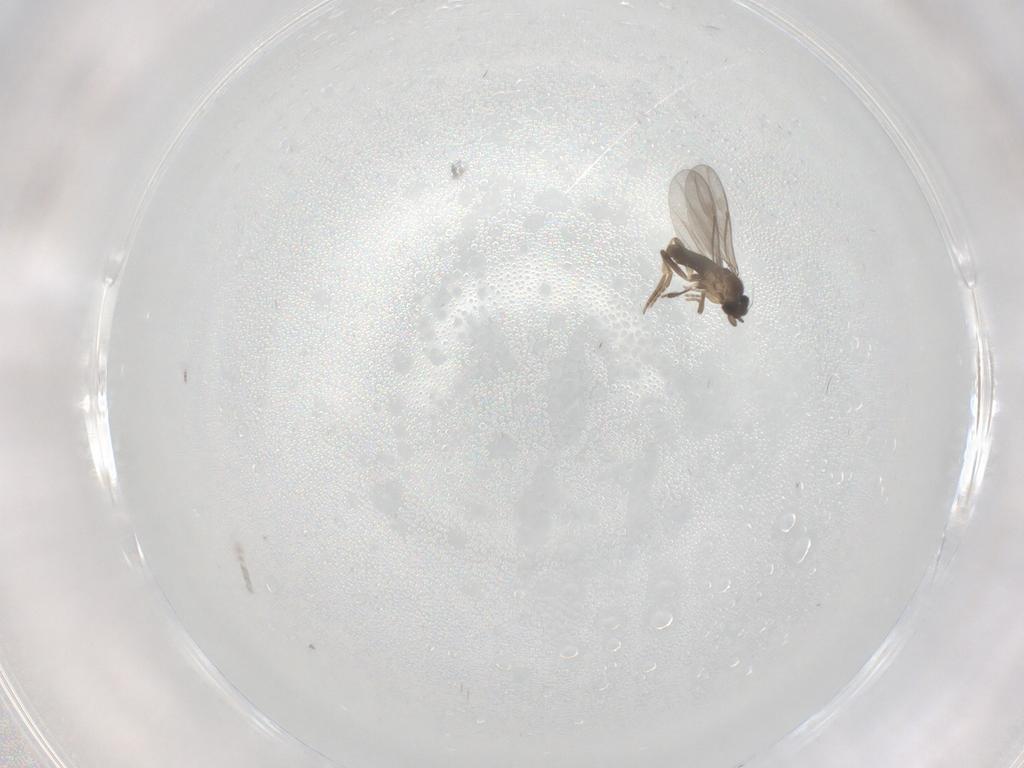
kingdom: Animalia
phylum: Arthropoda
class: Insecta
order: Diptera
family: Phoridae
